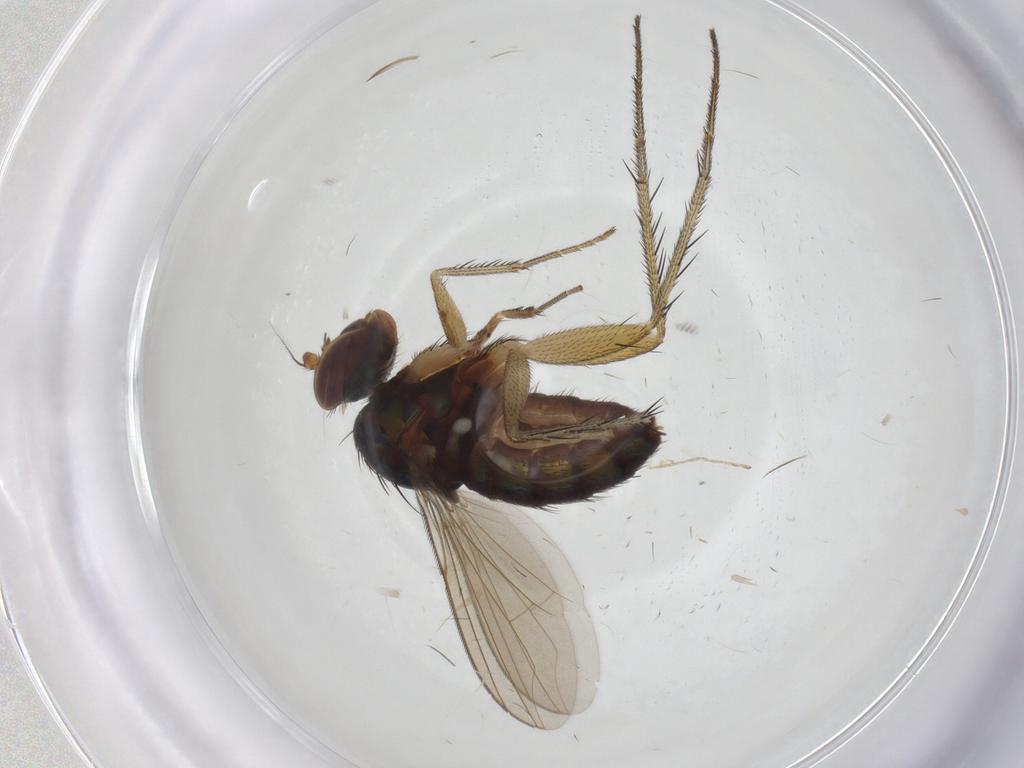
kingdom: Animalia
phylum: Arthropoda
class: Insecta
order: Diptera
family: Dolichopodidae
